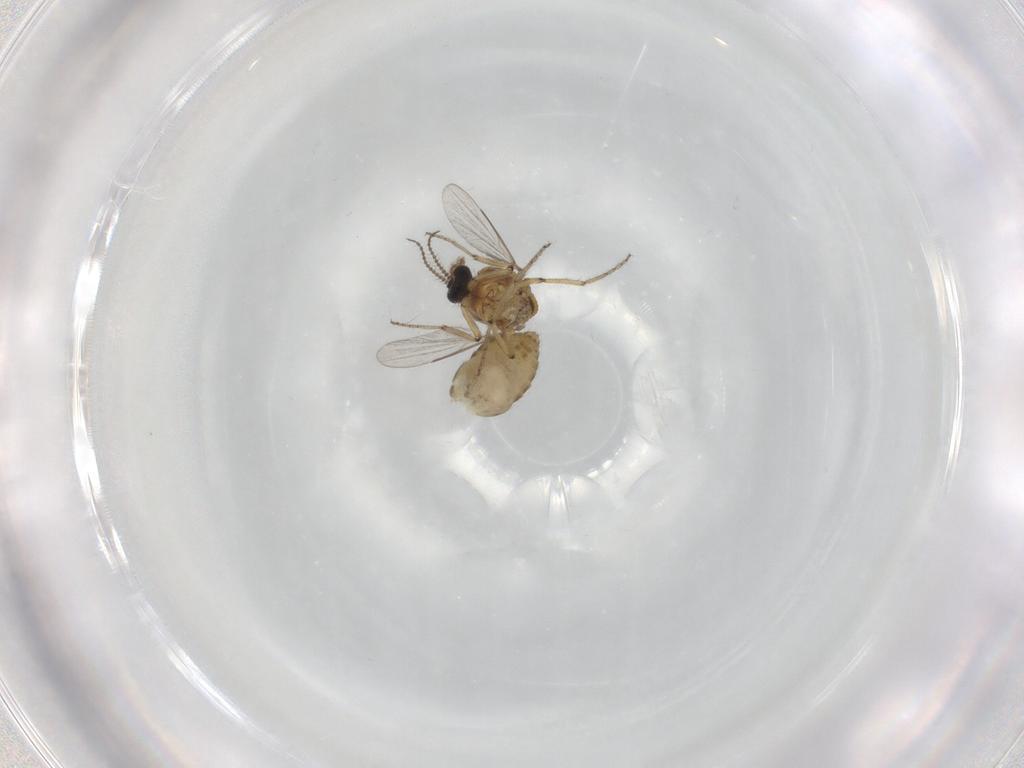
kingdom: Animalia
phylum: Arthropoda
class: Insecta
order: Diptera
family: Ceratopogonidae
